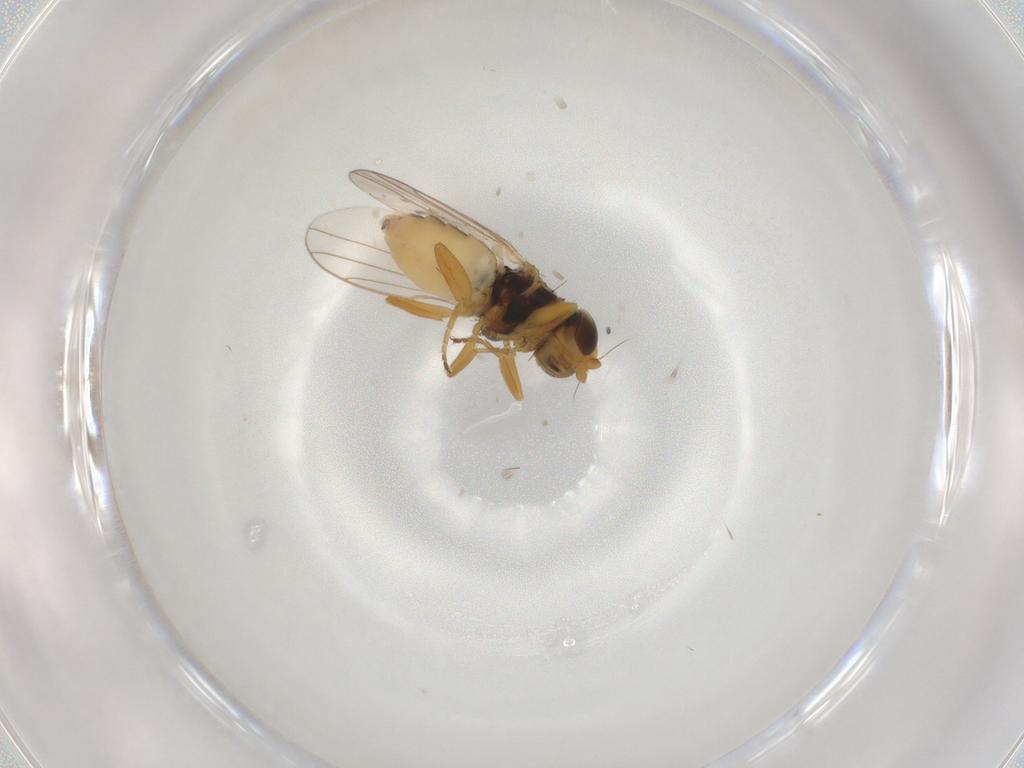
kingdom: Animalia
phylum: Arthropoda
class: Insecta
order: Diptera
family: Chloropidae
